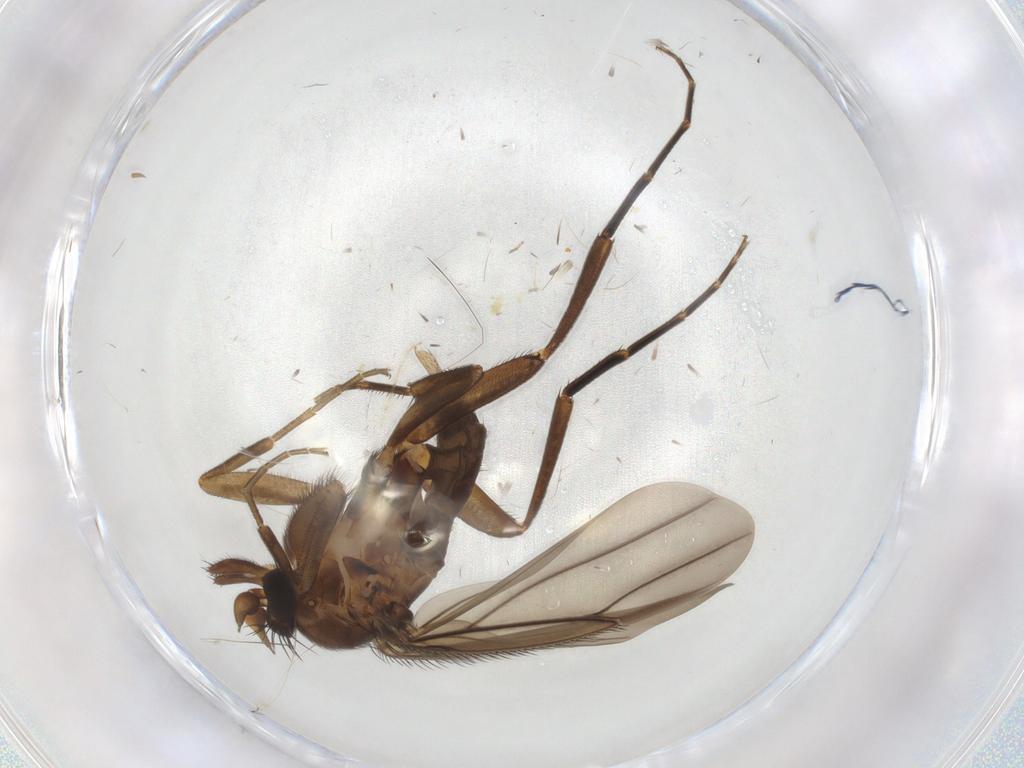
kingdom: Animalia
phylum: Arthropoda
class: Insecta
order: Diptera
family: Phoridae
